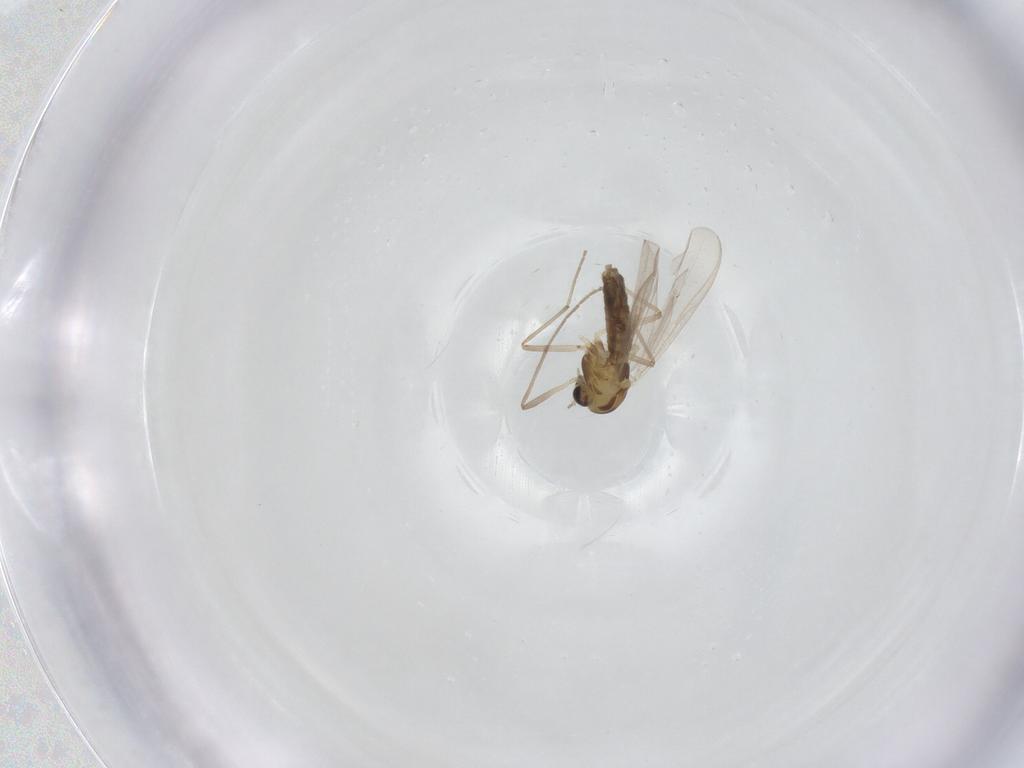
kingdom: Animalia
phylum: Arthropoda
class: Insecta
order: Diptera
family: Chironomidae
